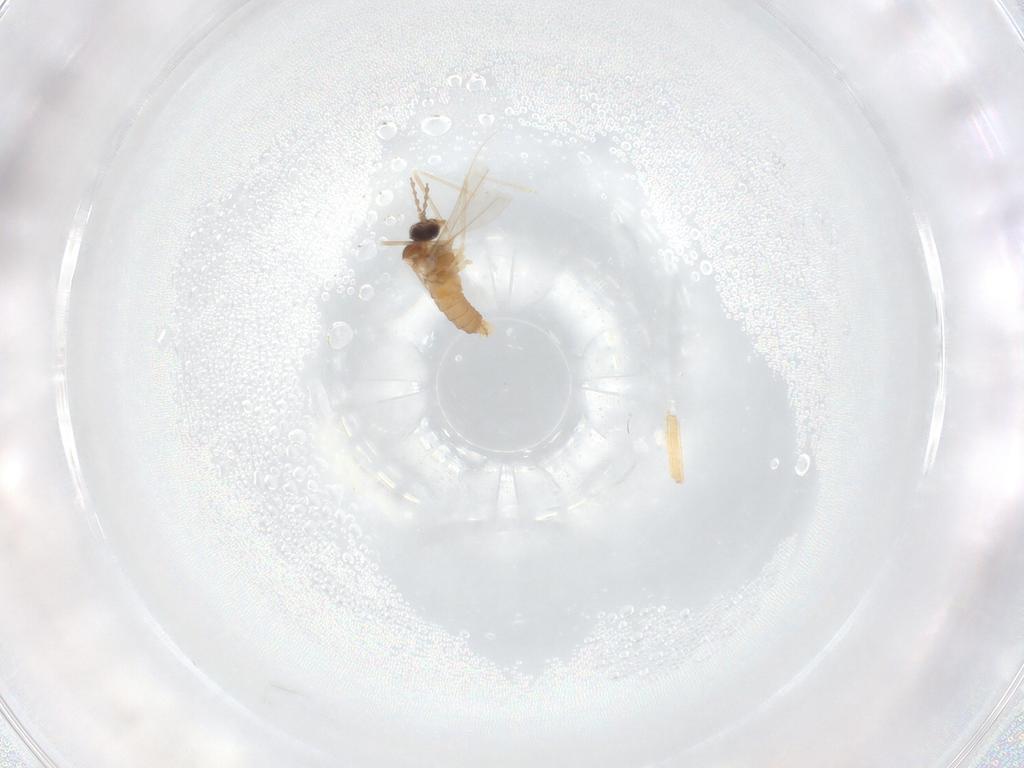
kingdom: Animalia
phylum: Arthropoda
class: Insecta
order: Diptera
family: Cecidomyiidae
